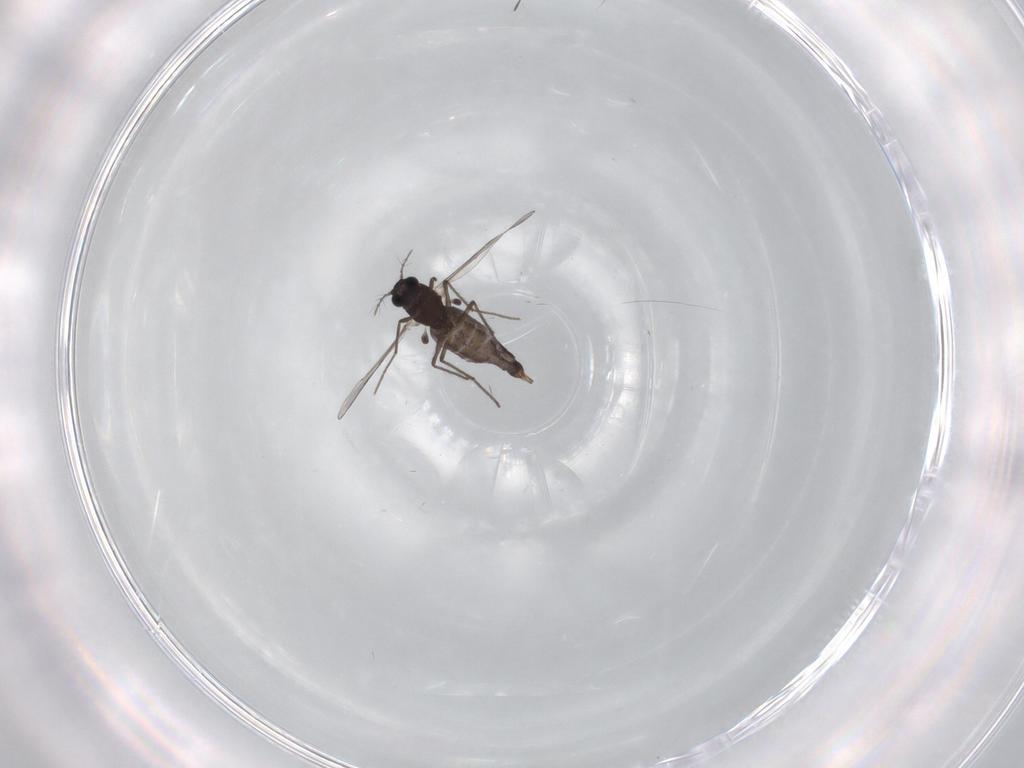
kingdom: Animalia
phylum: Arthropoda
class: Insecta
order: Diptera
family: Chironomidae
